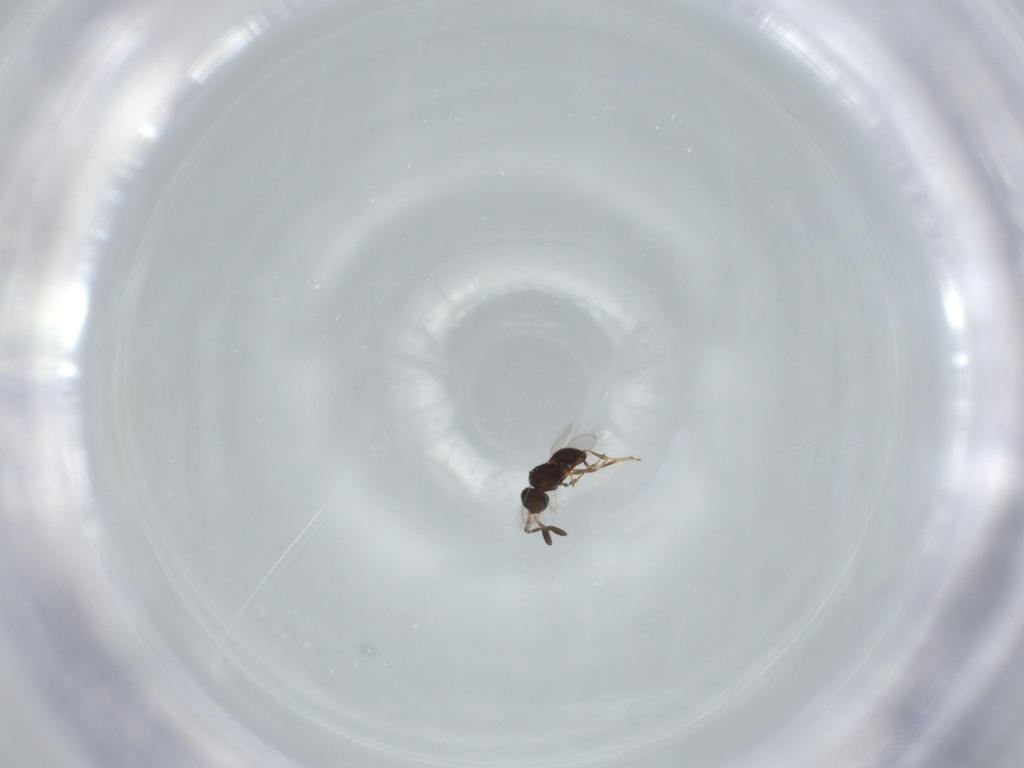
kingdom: Animalia
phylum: Arthropoda
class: Insecta
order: Hymenoptera
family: Scelionidae
